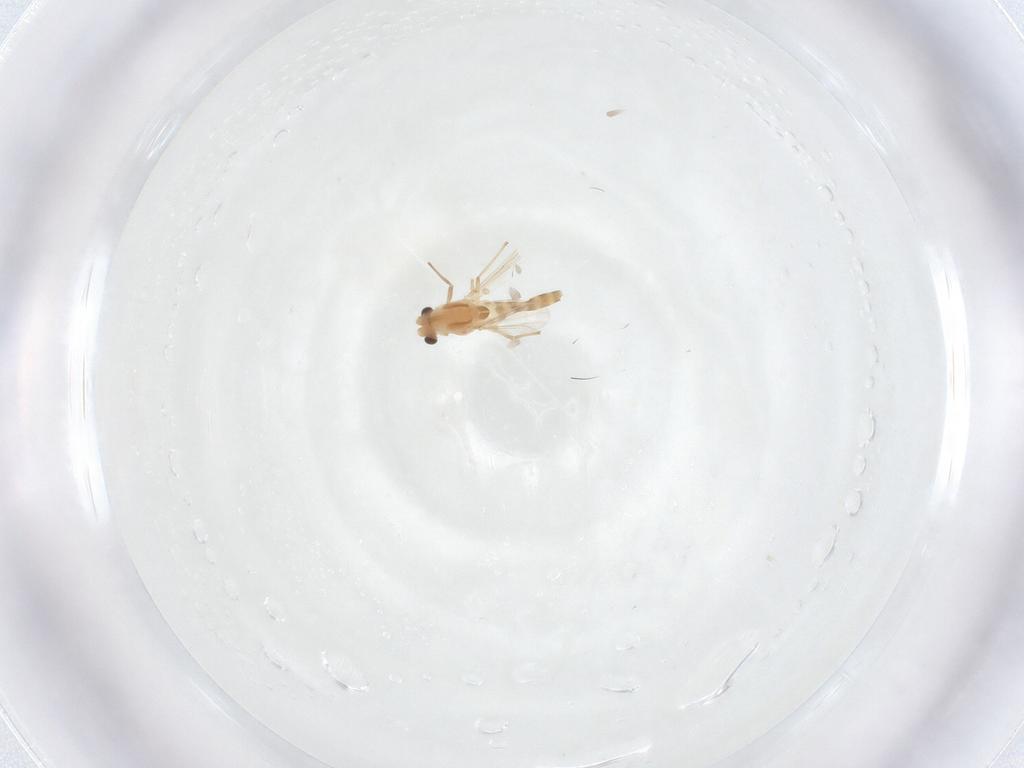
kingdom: Animalia
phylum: Arthropoda
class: Insecta
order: Diptera
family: Chironomidae
